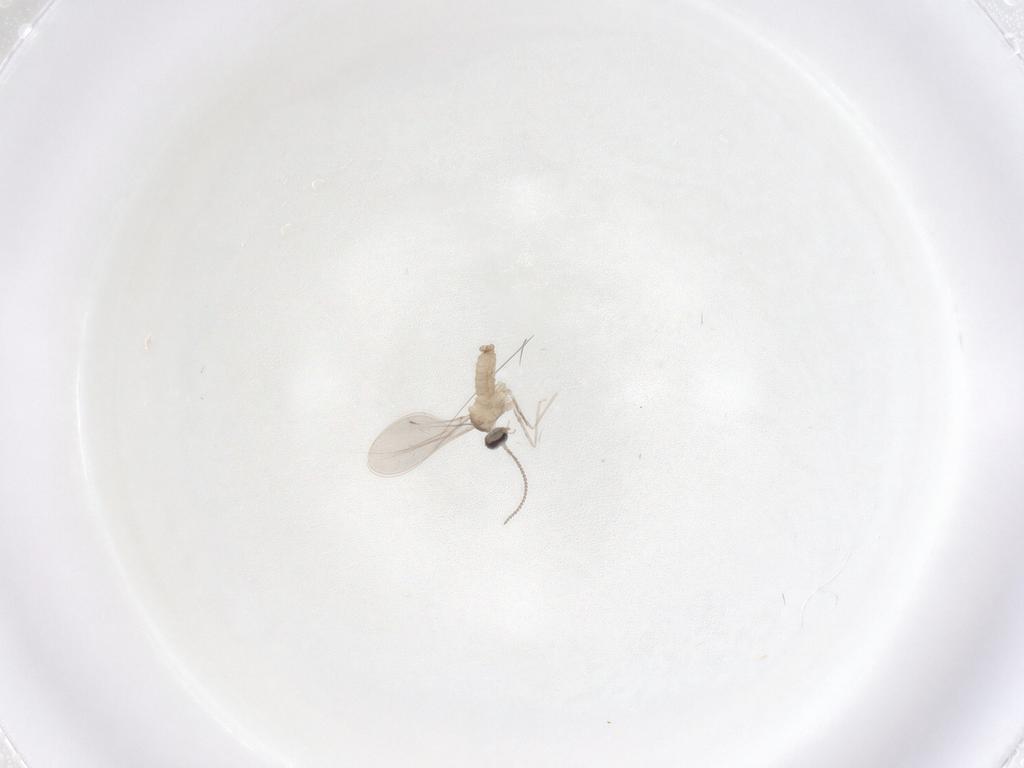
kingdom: Animalia
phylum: Arthropoda
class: Insecta
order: Diptera
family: Cecidomyiidae
